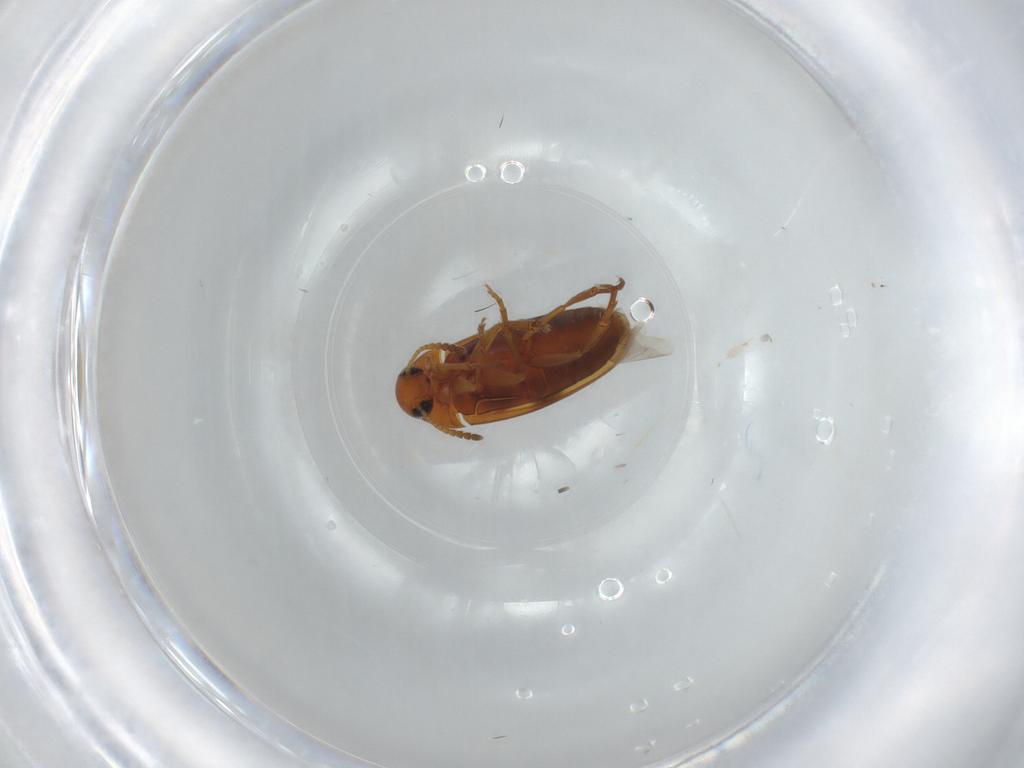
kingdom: Animalia
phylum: Arthropoda
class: Insecta
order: Coleoptera
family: Scraptiidae
